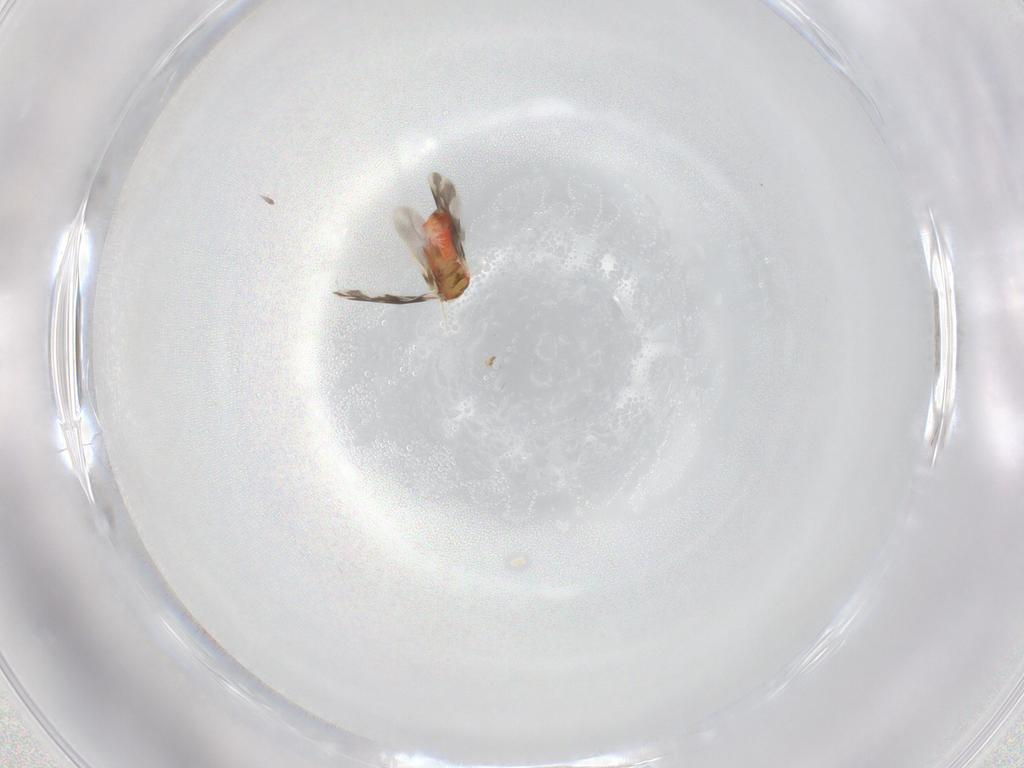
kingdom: Animalia
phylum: Arthropoda
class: Insecta
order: Hemiptera
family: Aleyrodidae
